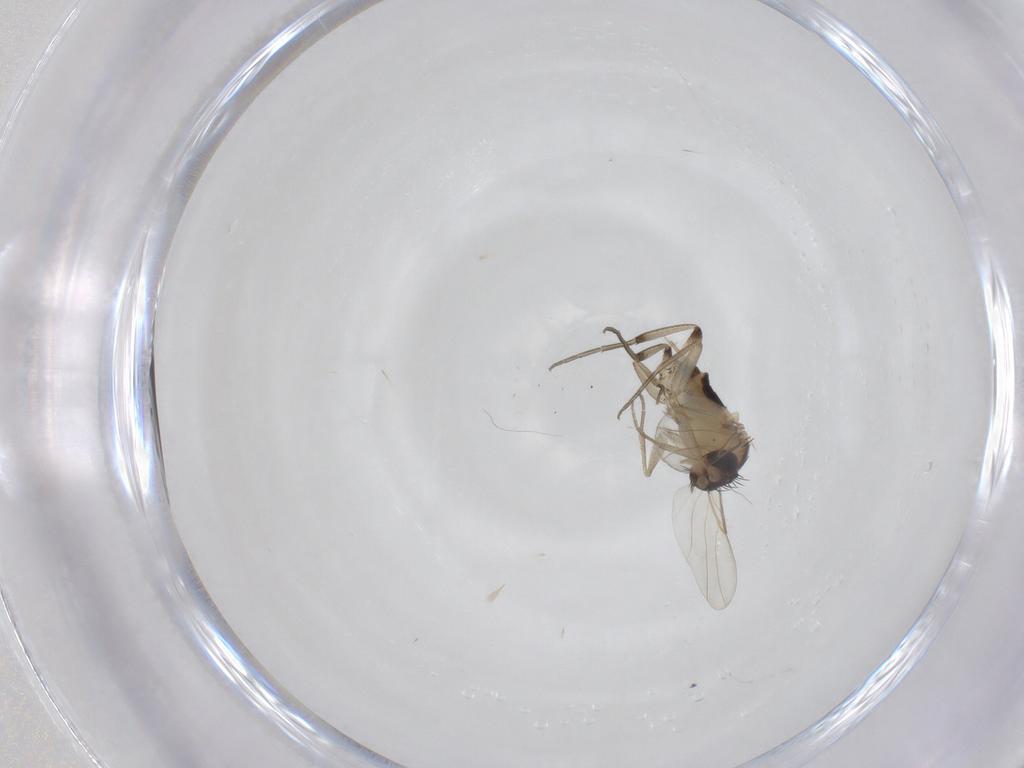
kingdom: Animalia
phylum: Arthropoda
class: Insecta
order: Diptera
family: Phoridae
